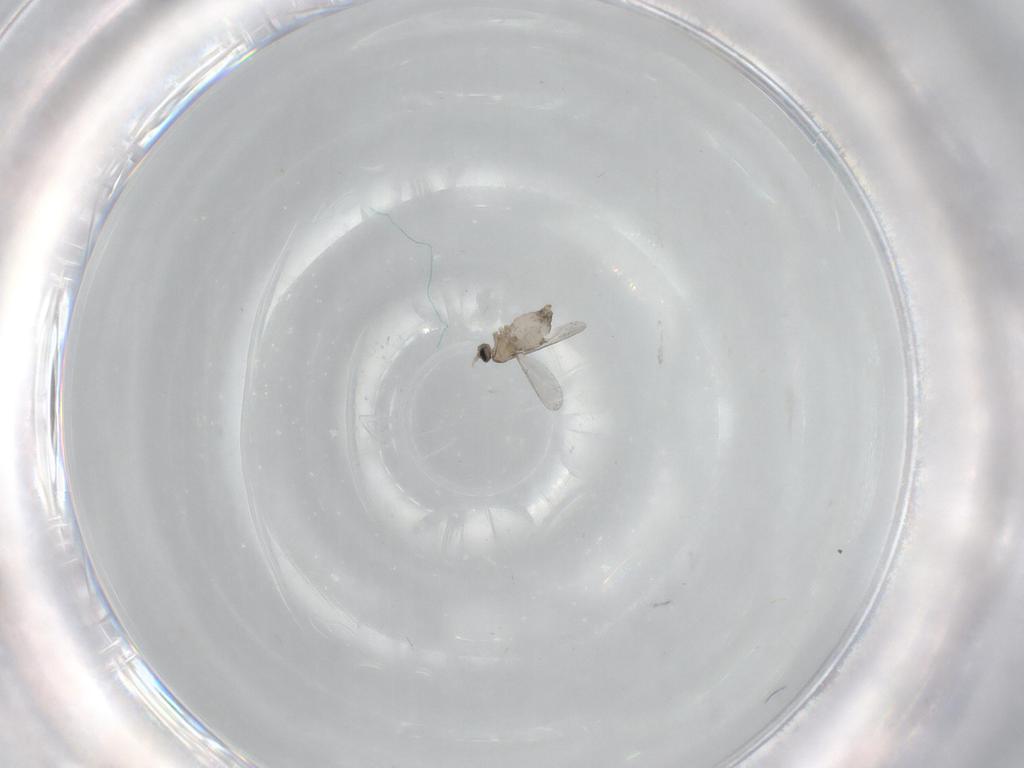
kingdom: Animalia
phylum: Arthropoda
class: Insecta
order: Diptera
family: Cecidomyiidae
